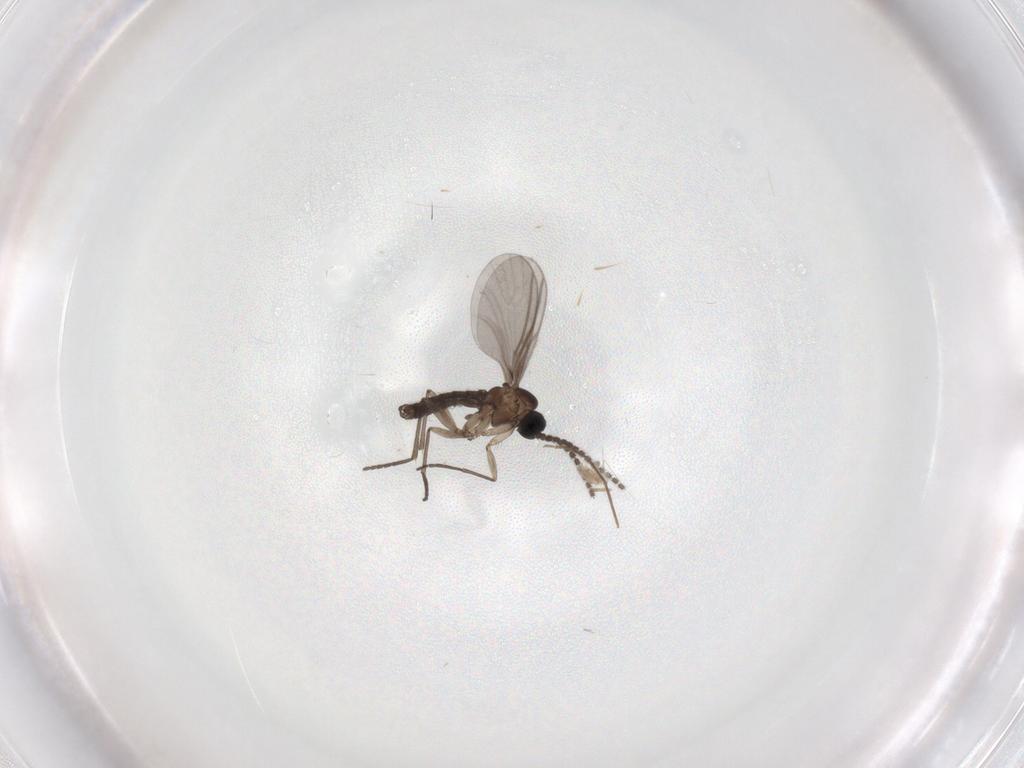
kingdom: Animalia
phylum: Arthropoda
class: Insecta
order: Diptera
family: Chironomidae
